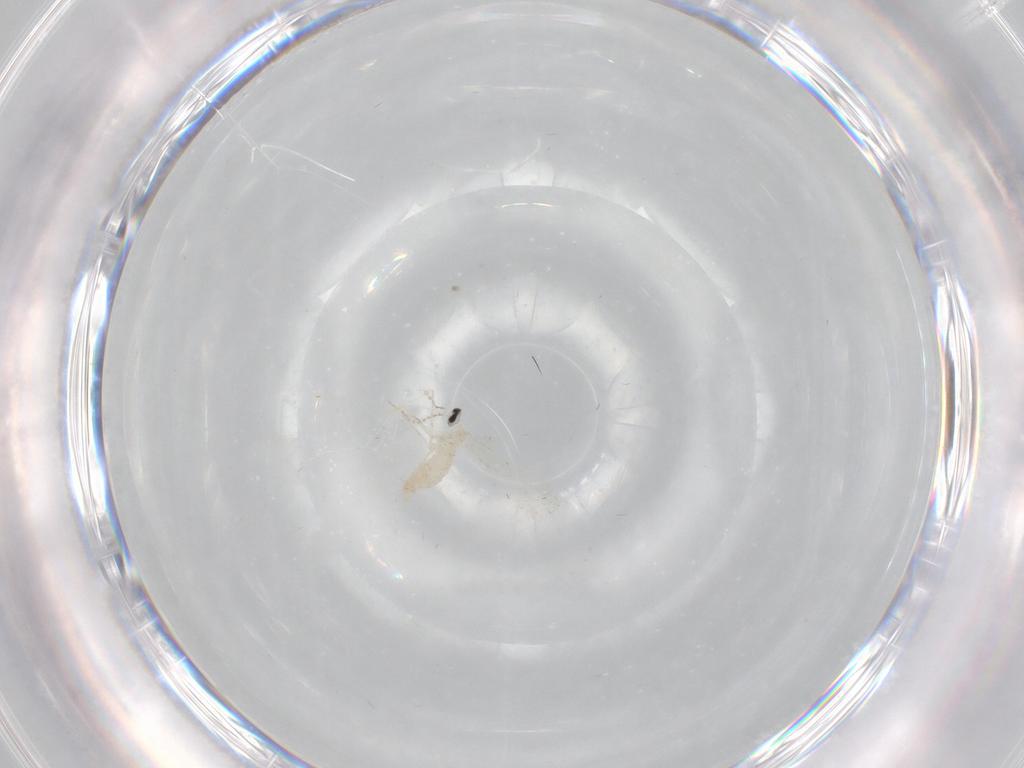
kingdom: Animalia
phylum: Arthropoda
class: Insecta
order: Diptera
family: Cecidomyiidae
